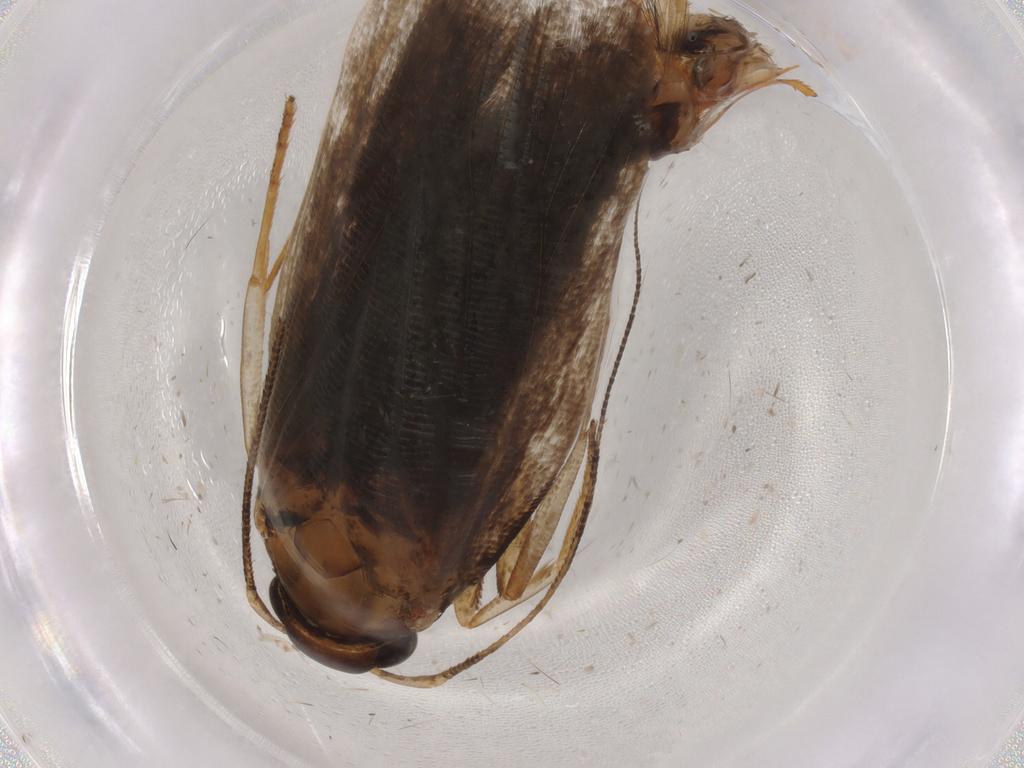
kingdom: Animalia
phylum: Arthropoda
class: Insecta
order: Lepidoptera
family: Gelechiidae
